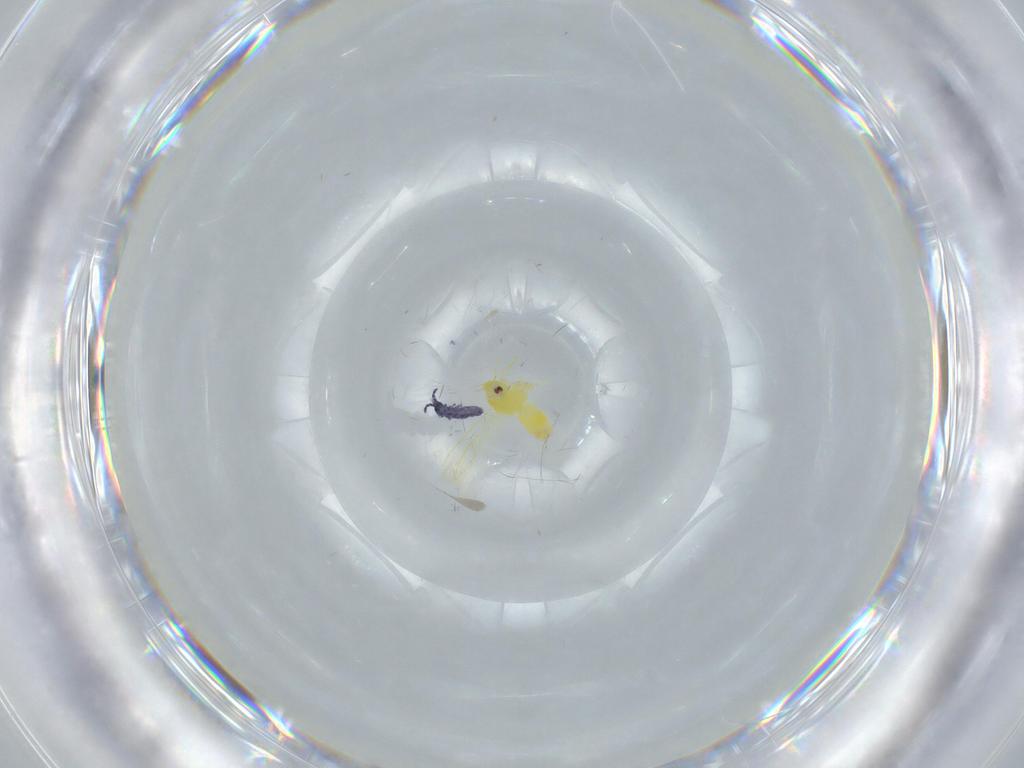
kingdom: Animalia
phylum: Arthropoda
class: Insecta
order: Hemiptera
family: Aleyrodidae
